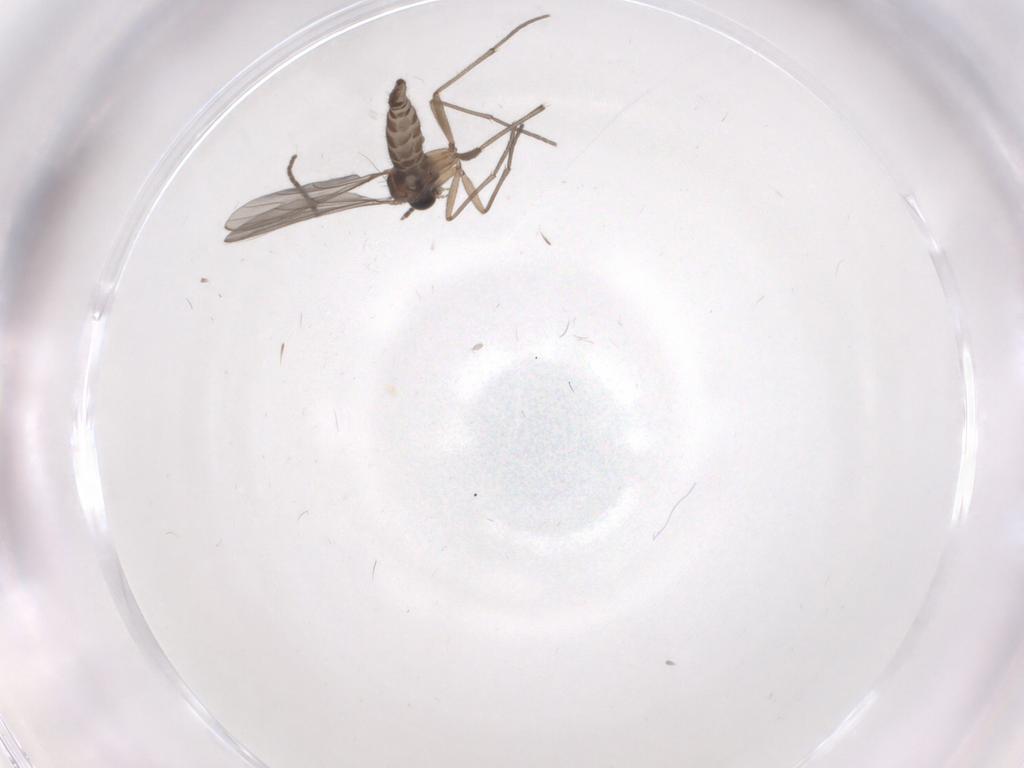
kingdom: Animalia
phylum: Arthropoda
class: Insecta
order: Diptera
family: Sciaridae
